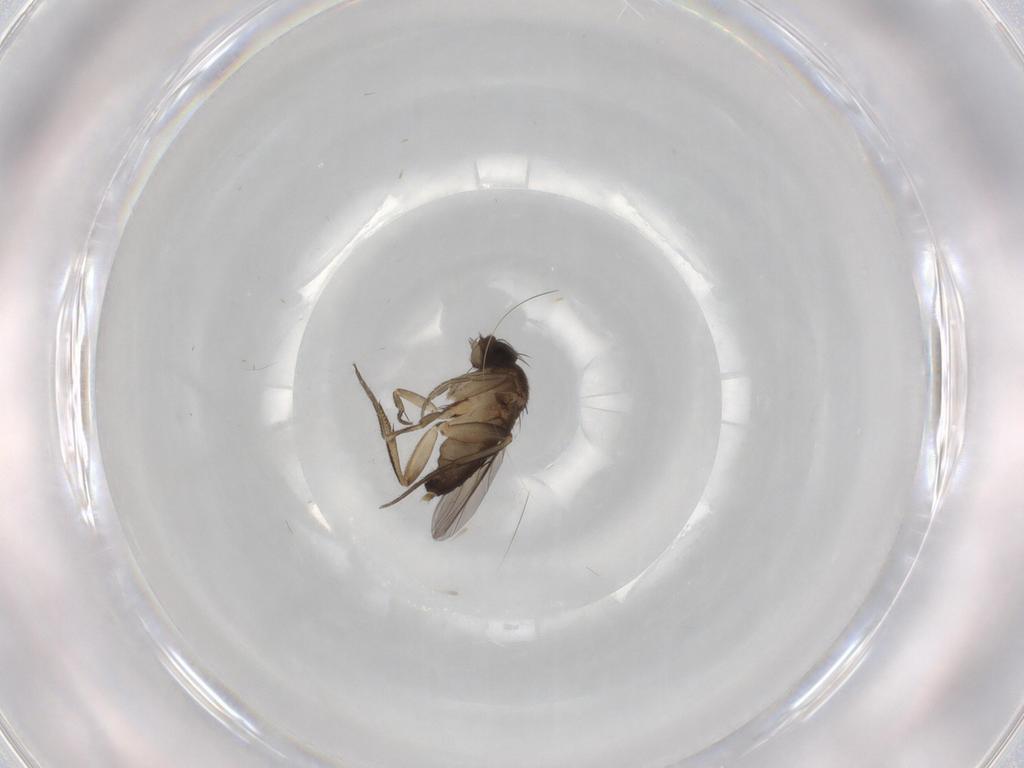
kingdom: Animalia
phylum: Arthropoda
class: Insecta
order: Diptera
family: Phoridae
